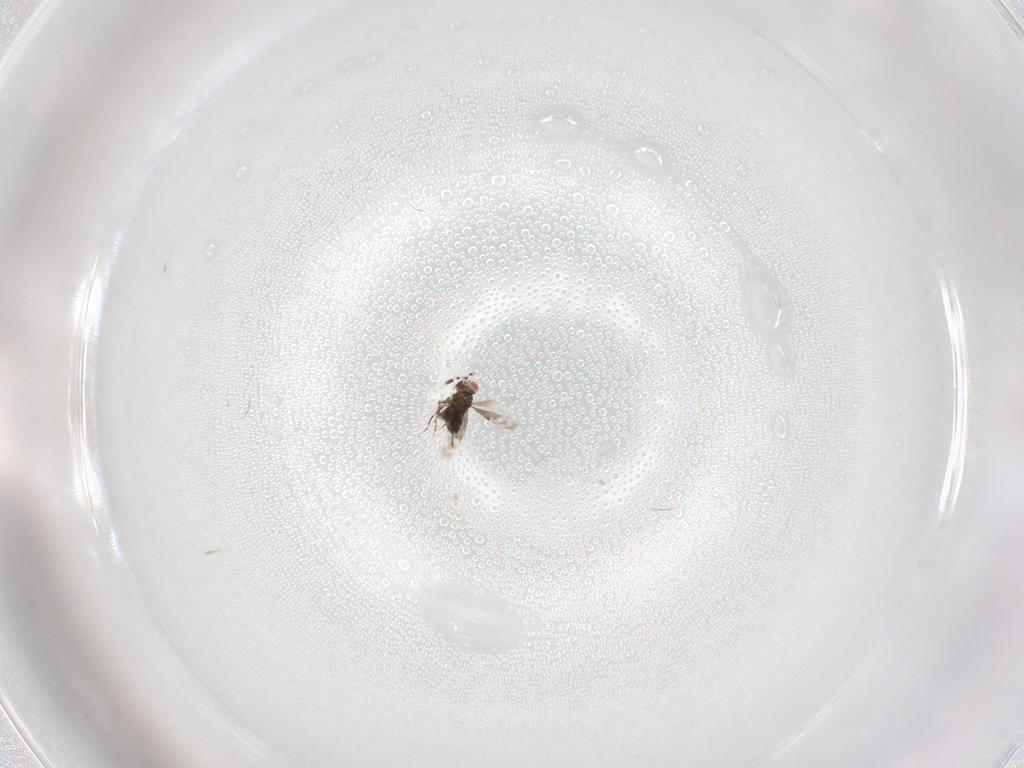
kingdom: Animalia
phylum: Arthropoda
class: Insecta
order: Hymenoptera
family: Azotidae
